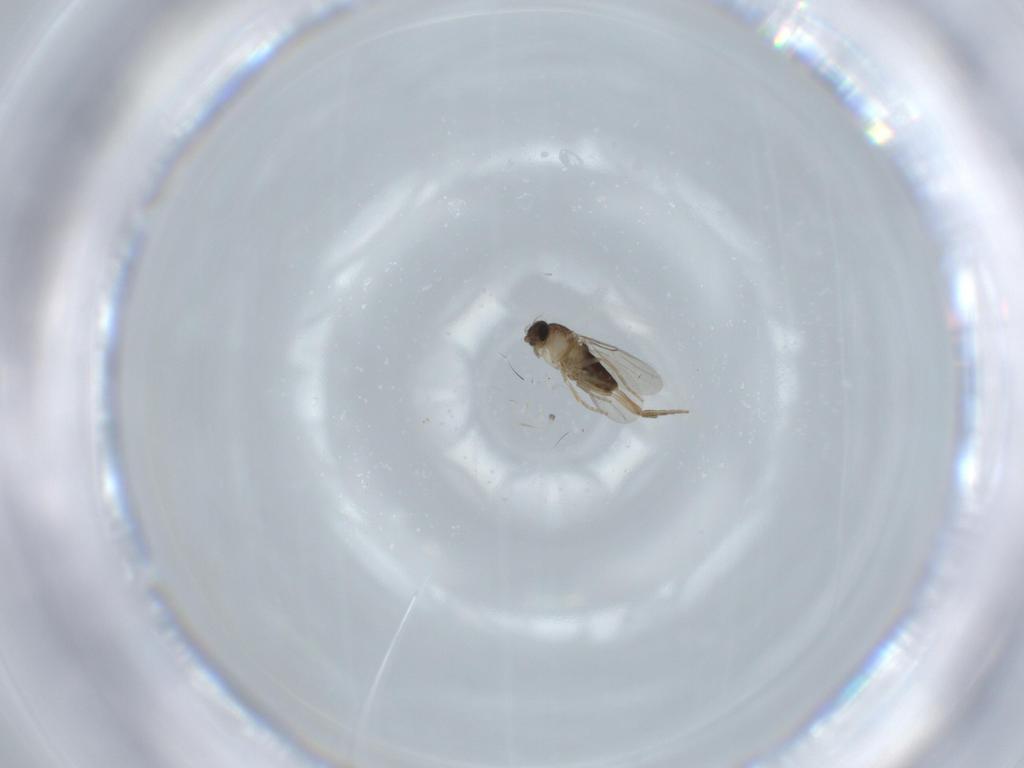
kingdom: Animalia
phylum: Arthropoda
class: Insecta
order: Diptera
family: Phoridae
